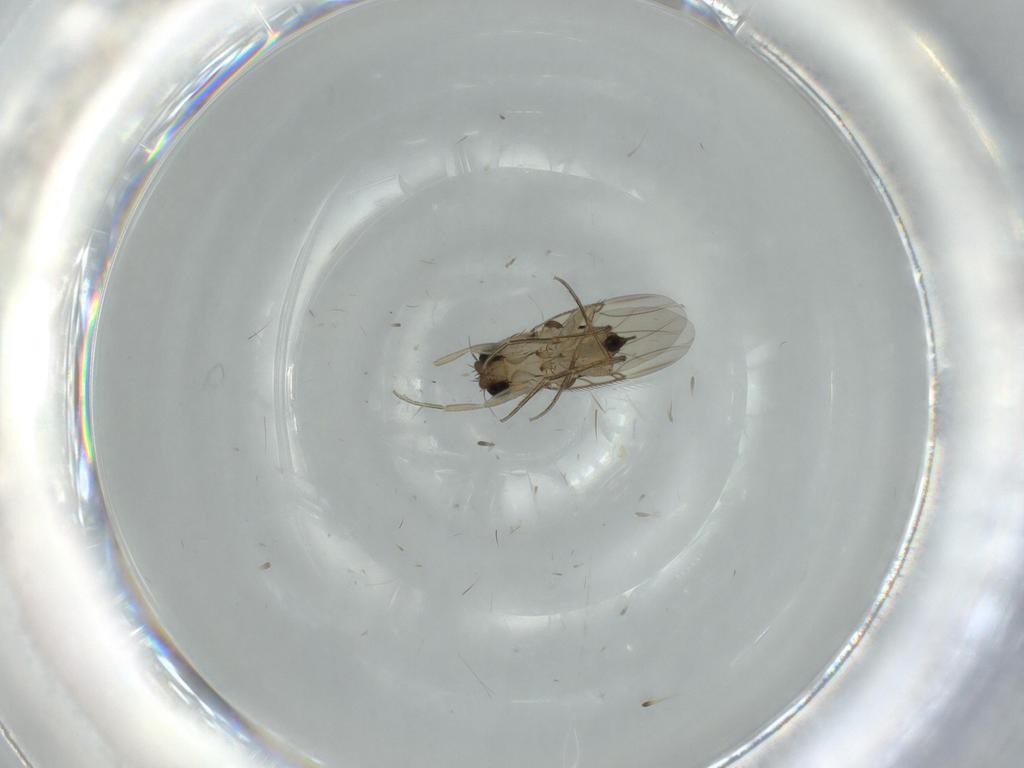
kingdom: Animalia
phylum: Arthropoda
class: Insecta
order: Diptera
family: Phoridae
